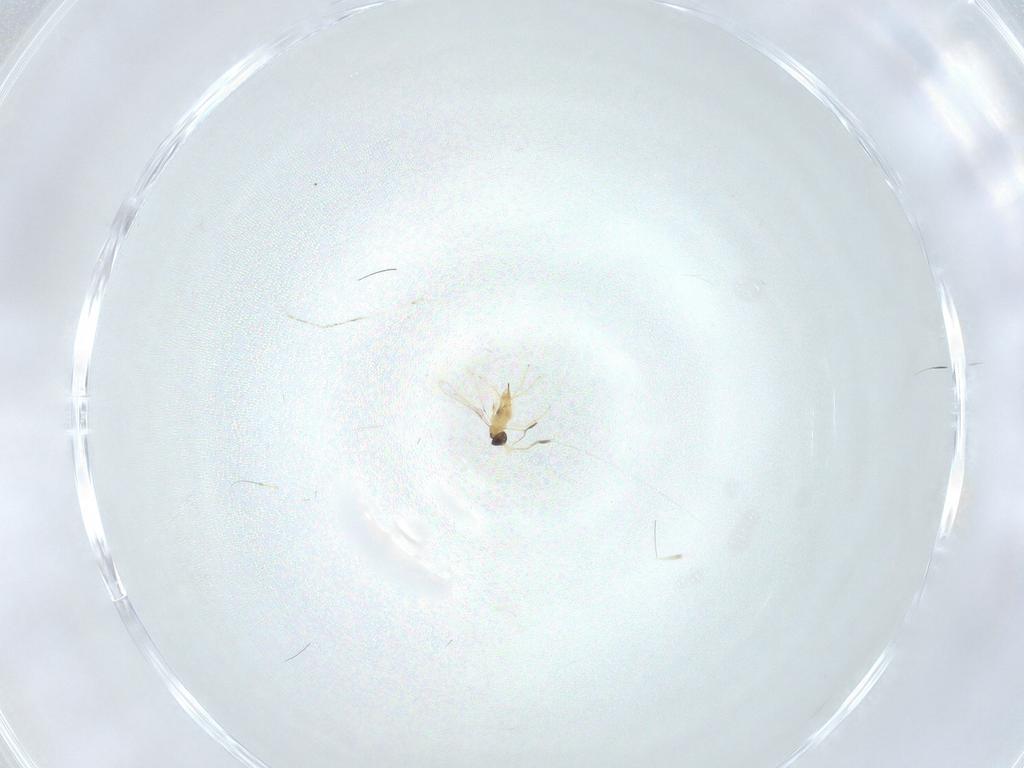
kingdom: Animalia
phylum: Arthropoda
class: Insecta
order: Hymenoptera
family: Mymaridae
